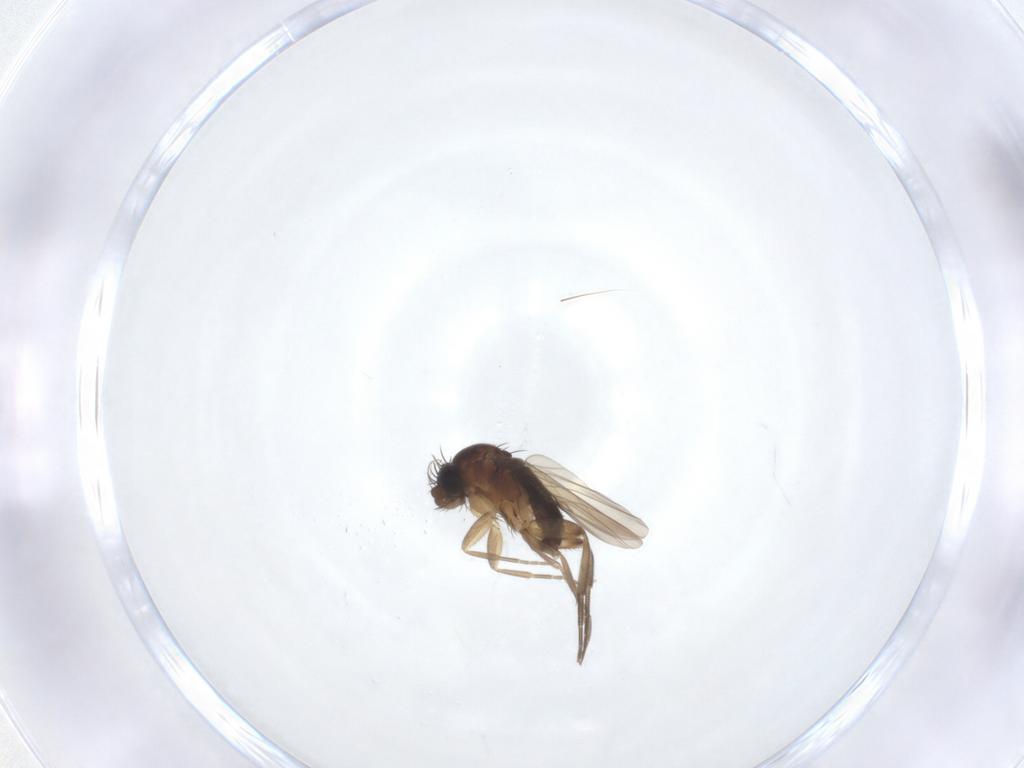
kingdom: Animalia
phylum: Arthropoda
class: Insecta
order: Diptera
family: Phoridae
